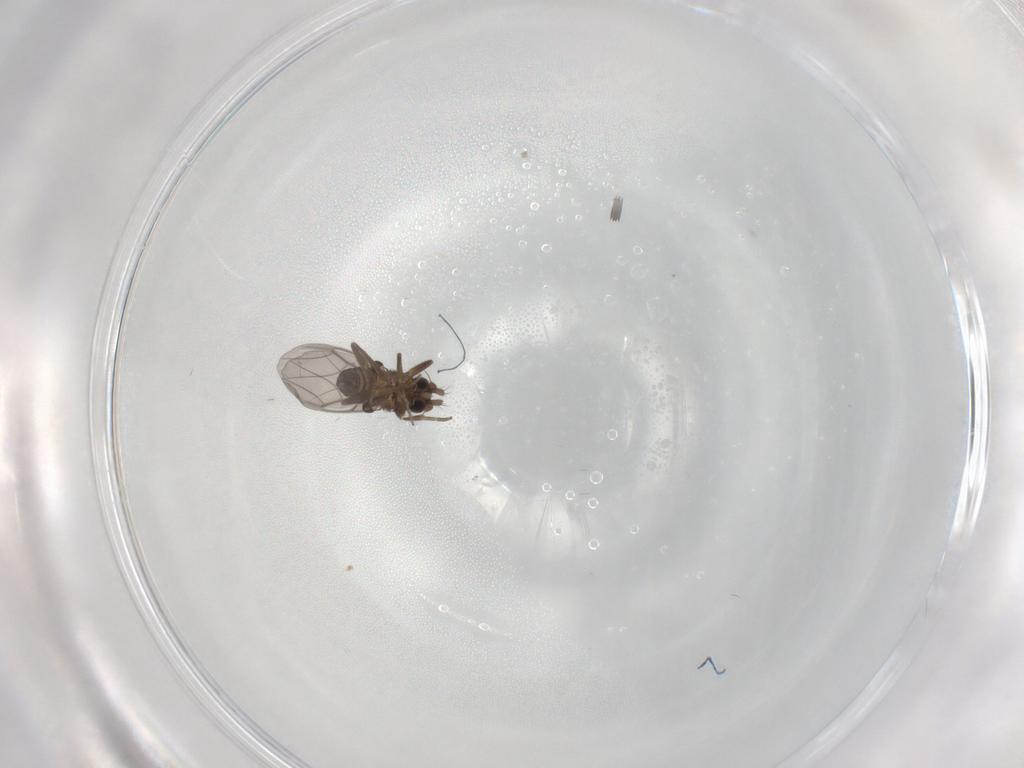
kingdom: Animalia
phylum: Arthropoda
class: Insecta
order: Diptera
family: Phoridae
